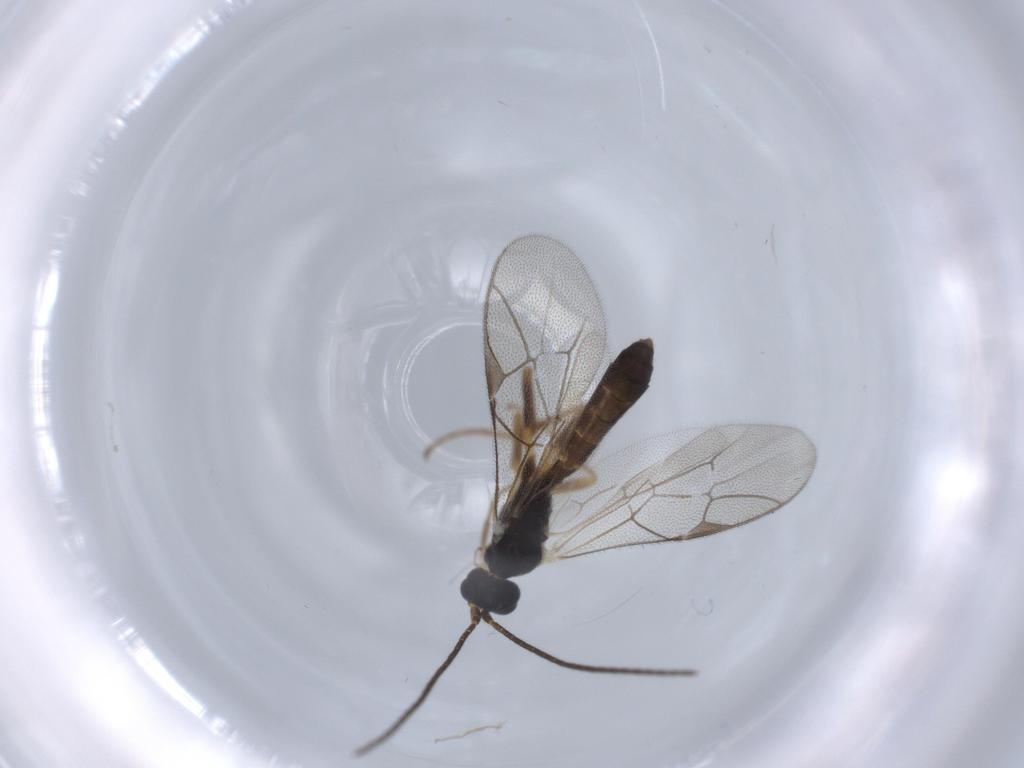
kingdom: Animalia
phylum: Arthropoda
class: Insecta
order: Hymenoptera
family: Ichneumonidae
